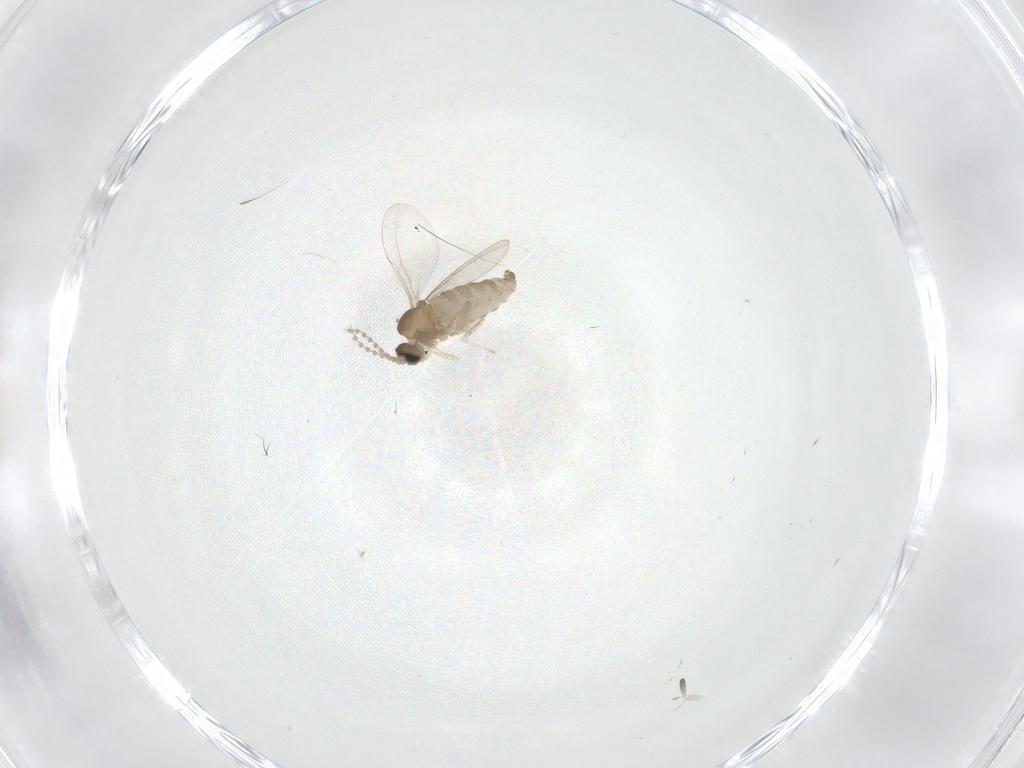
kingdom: Animalia
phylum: Arthropoda
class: Insecta
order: Diptera
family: Cecidomyiidae
